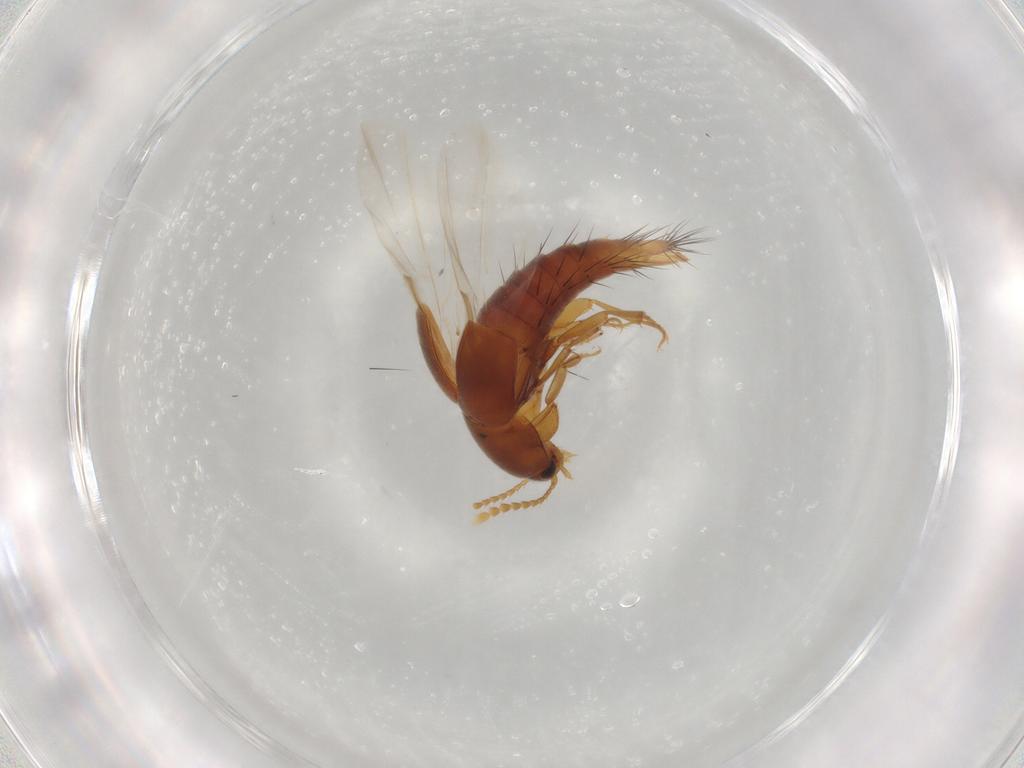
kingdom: Animalia
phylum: Arthropoda
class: Insecta
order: Coleoptera
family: Staphylinidae
